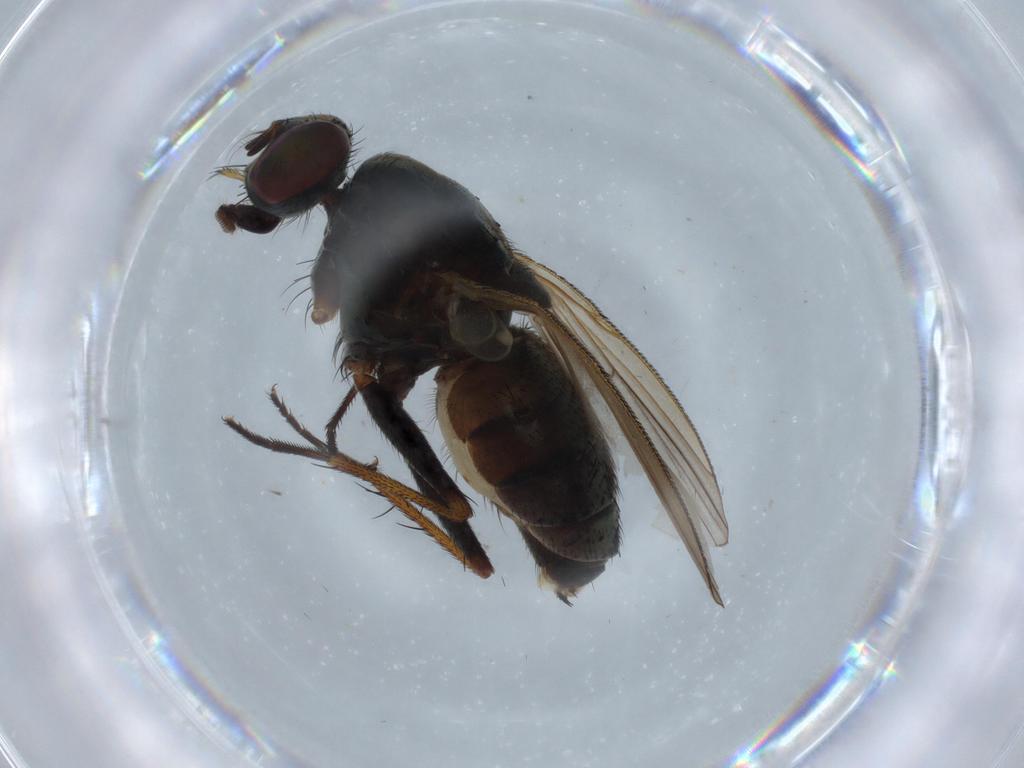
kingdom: Animalia
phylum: Arthropoda
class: Insecta
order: Diptera
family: Muscidae
